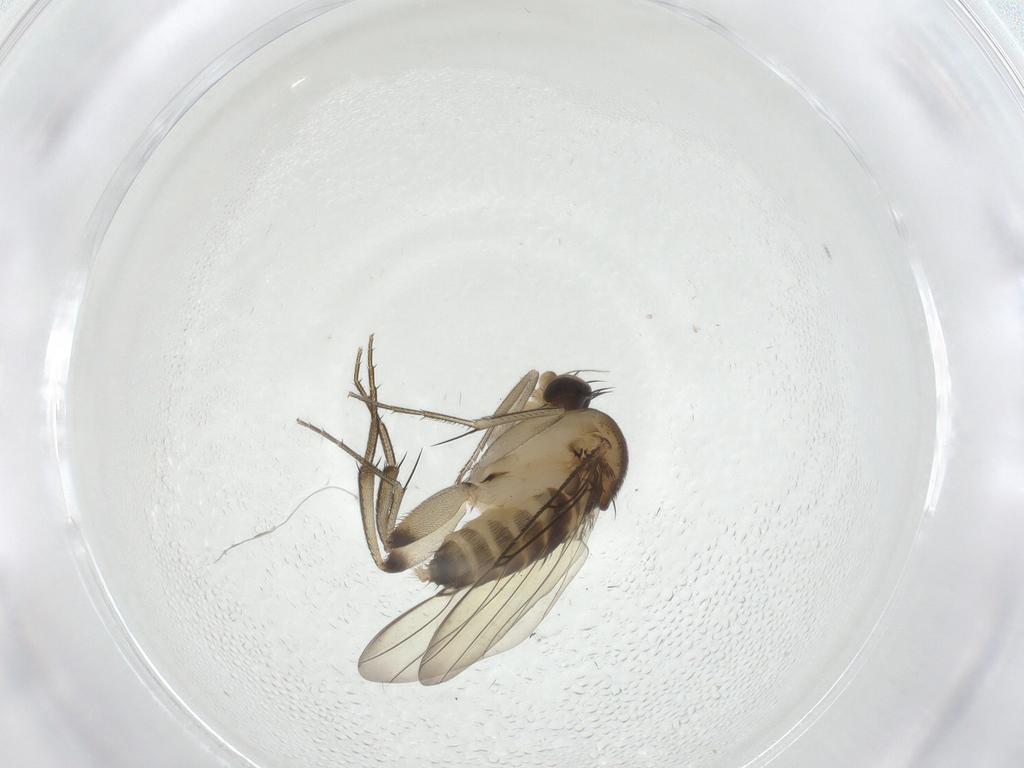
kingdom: Animalia
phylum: Arthropoda
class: Insecta
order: Diptera
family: Phoridae
